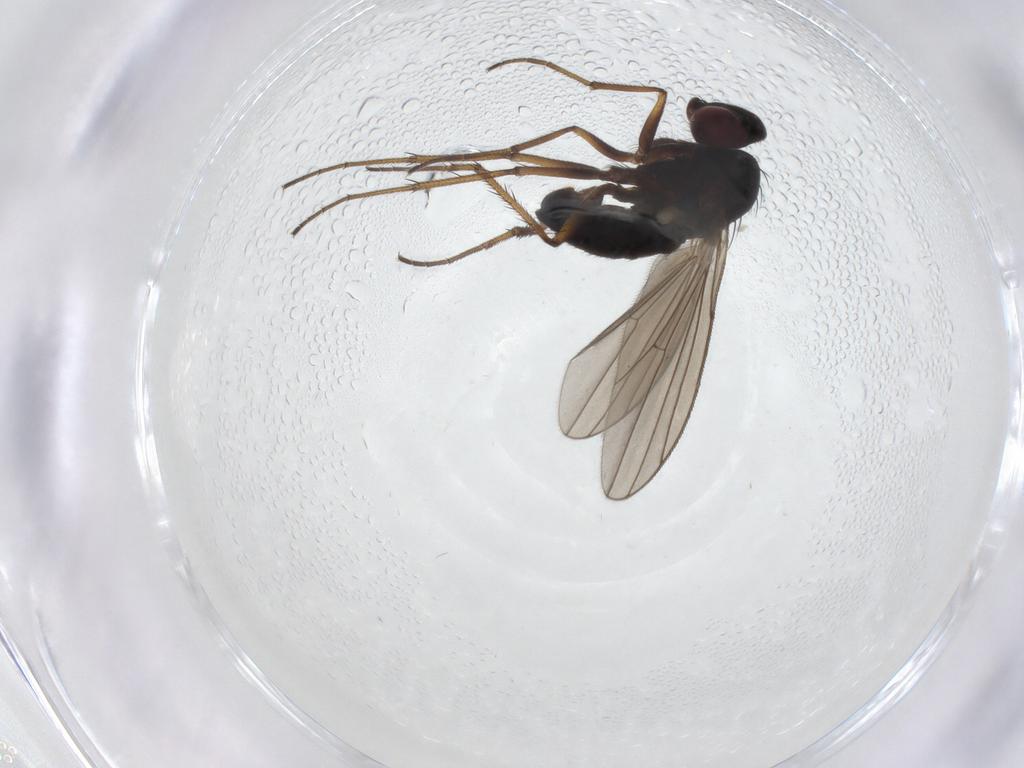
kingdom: Animalia
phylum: Arthropoda
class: Insecta
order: Diptera
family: Dolichopodidae
